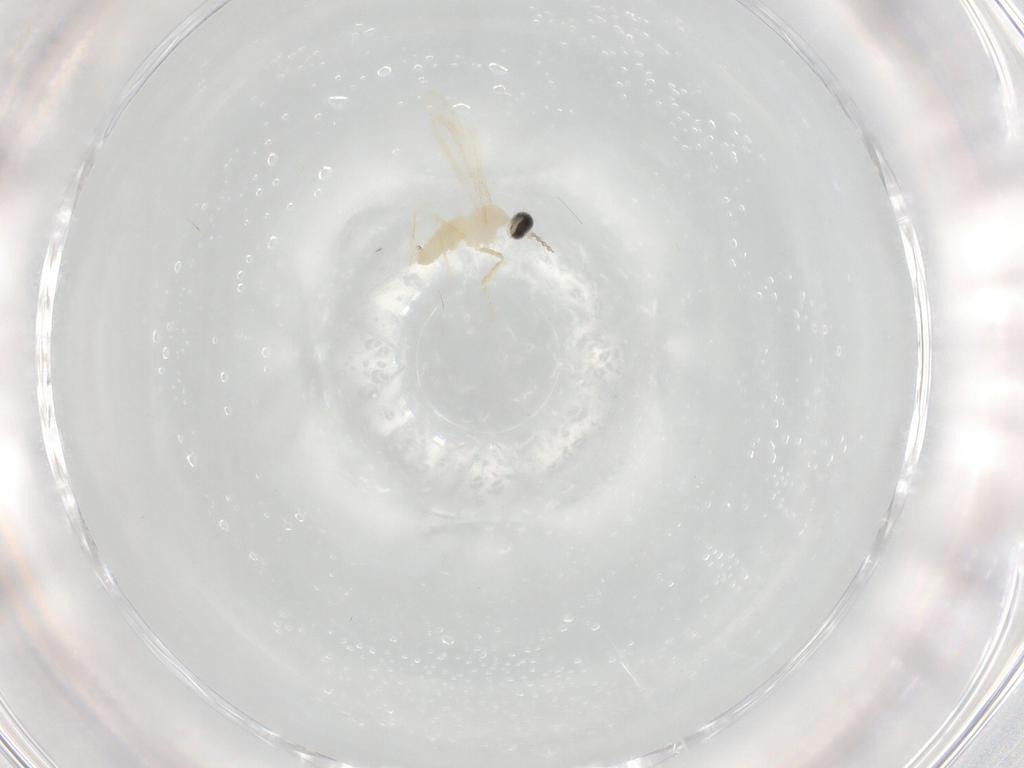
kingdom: Animalia
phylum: Arthropoda
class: Insecta
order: Diptera
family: Cecidomyiidae
